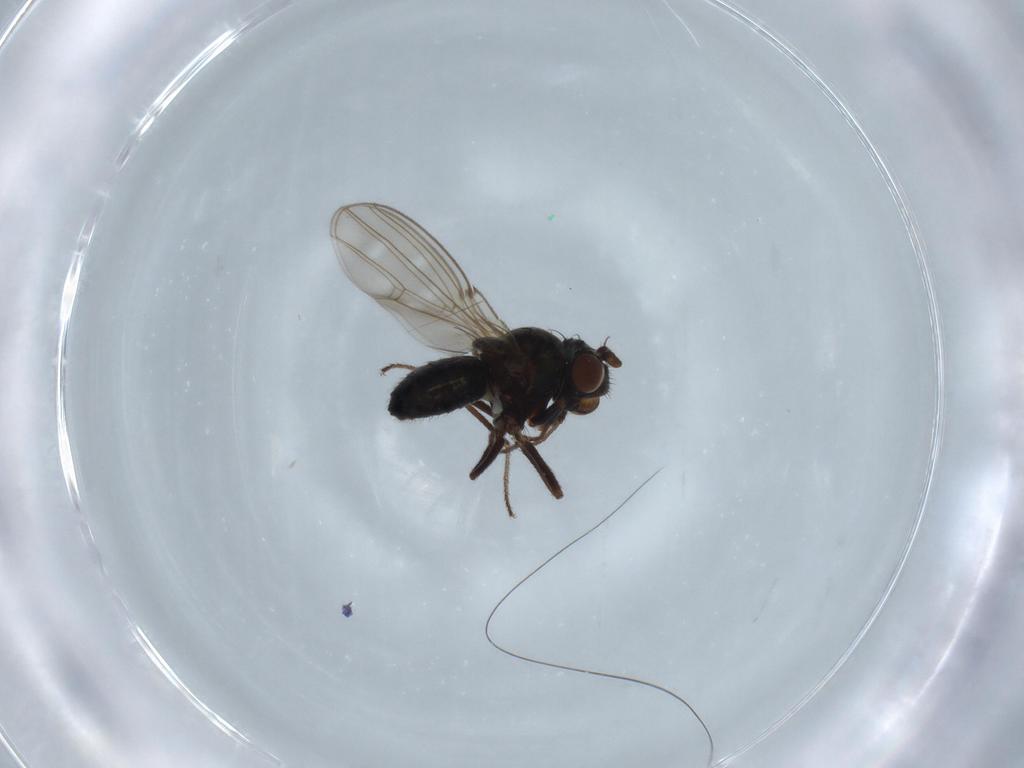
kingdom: Animalia
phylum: Arthropoda
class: Insecta
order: Diptera
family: Ephydridae
